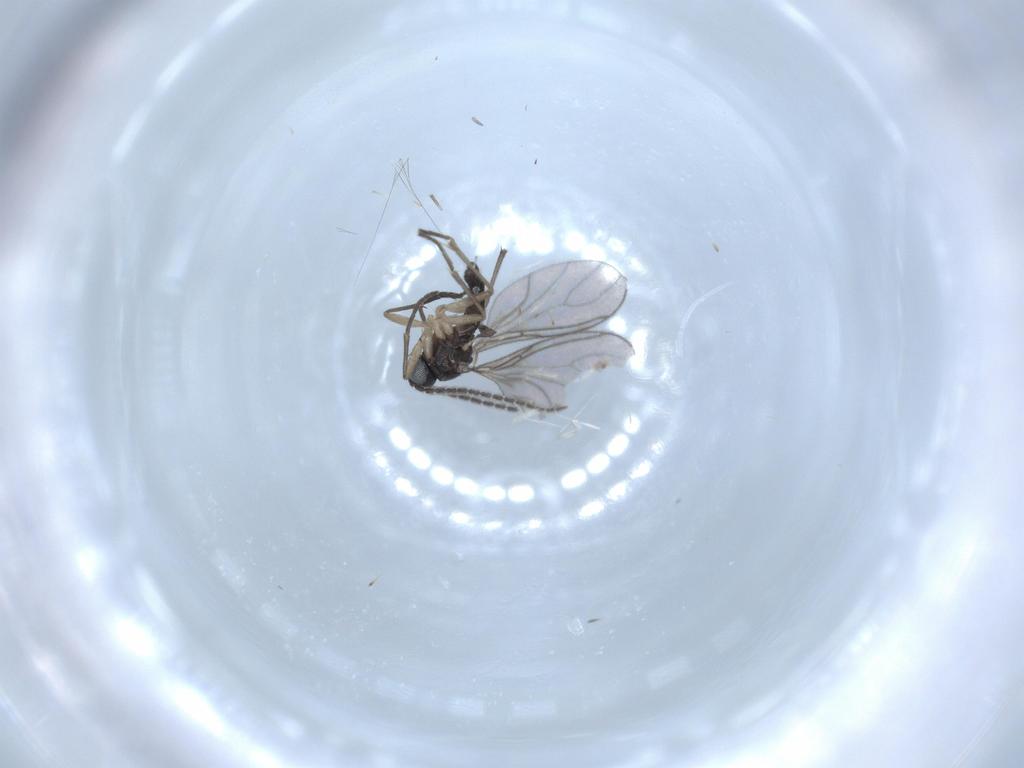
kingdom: Animalia
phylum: Arthropoda
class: Insecta
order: Diptera
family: Sciaridae
